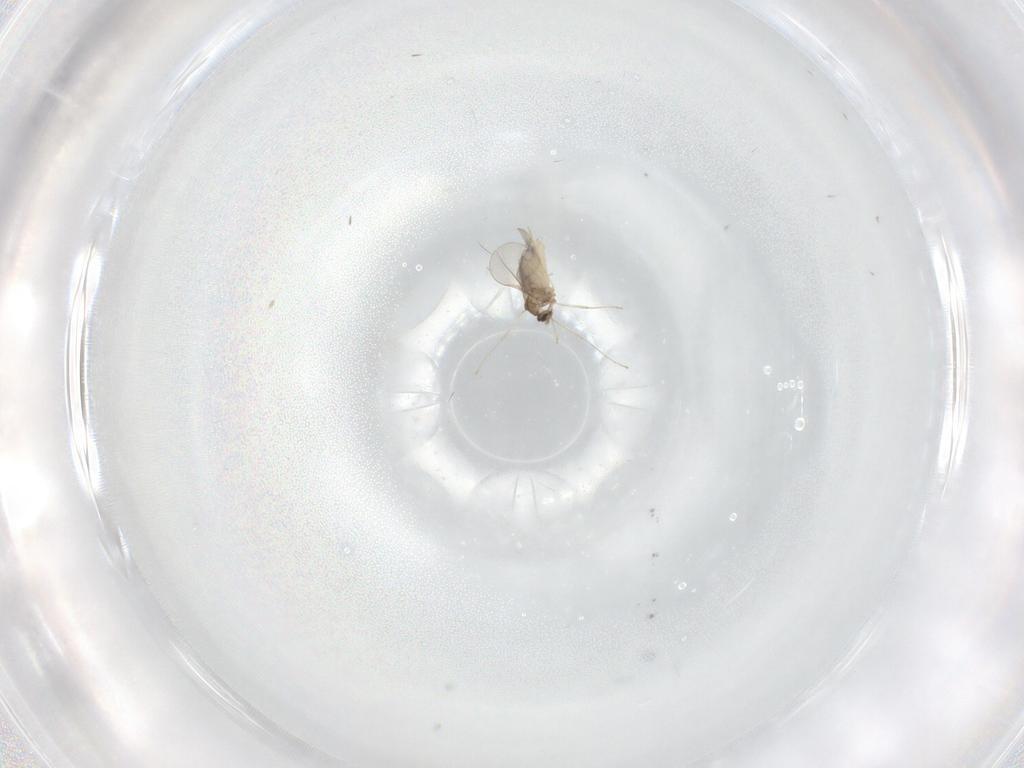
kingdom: Animalia
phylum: Arthropoda
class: Insecta
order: Diptera
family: Cecidomyiidae
